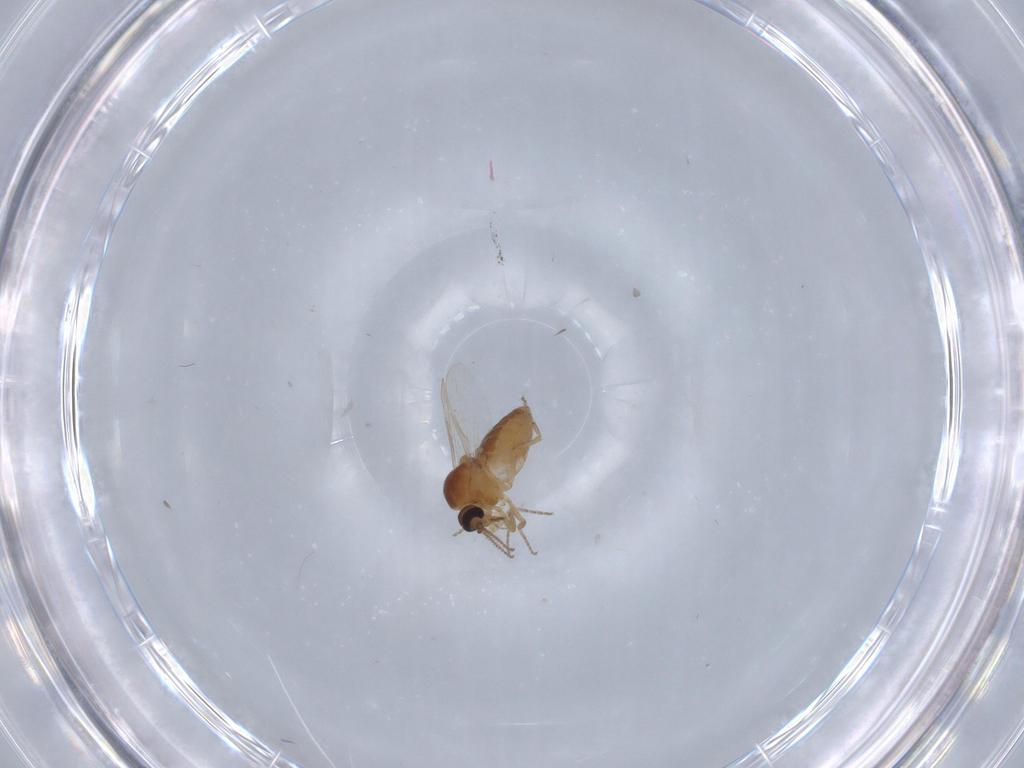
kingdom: Animalia
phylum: Arthropoda
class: Insecta
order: Diptera
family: Ceratopogonidae
